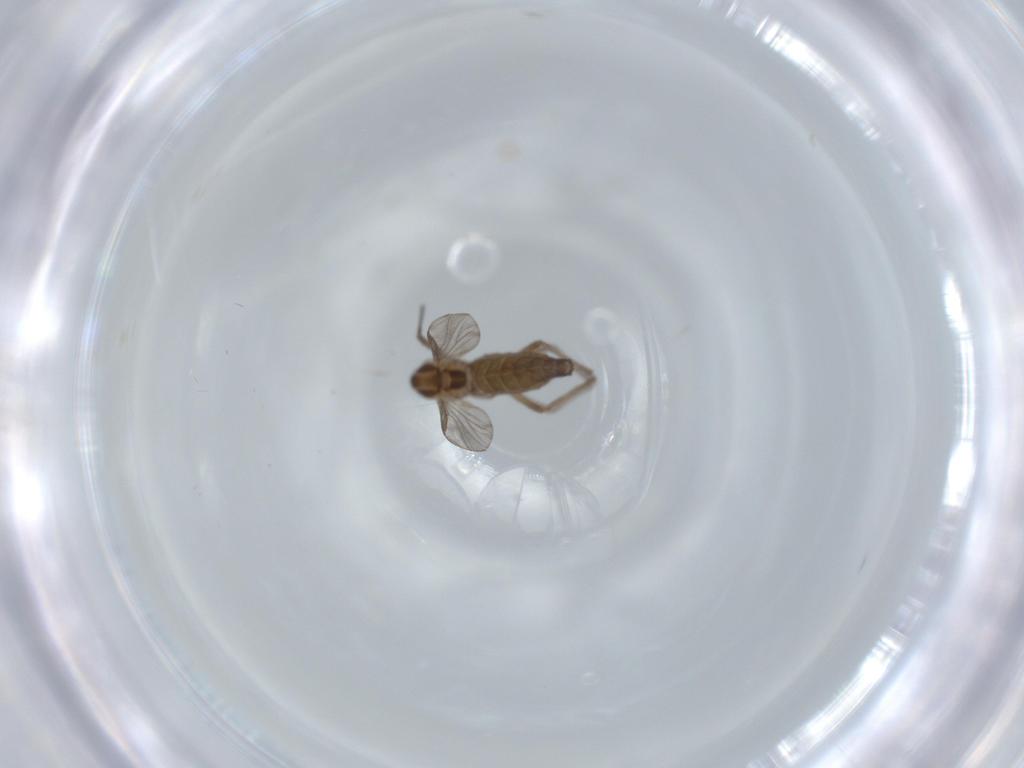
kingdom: Animalia
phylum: Arthropoda
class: Insecta
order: Diptera
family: Chironomidae
